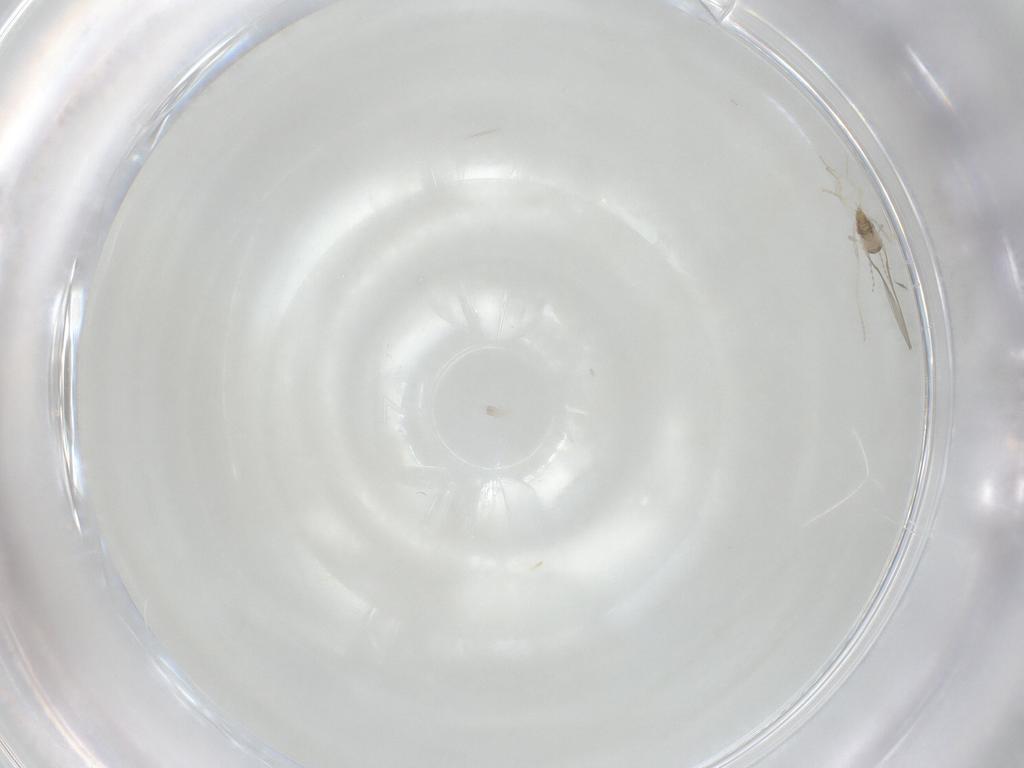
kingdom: Animalia
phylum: Arthropoda
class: Insecta
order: Diptera
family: Cecidomyiidae
